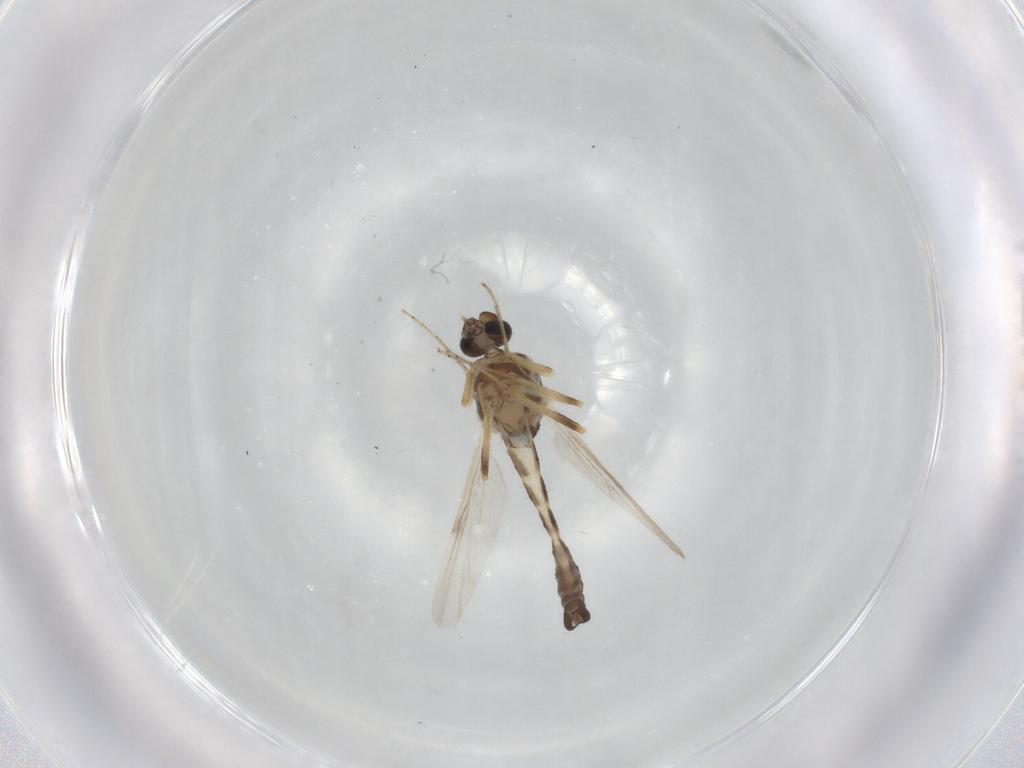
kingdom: Animalia
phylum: Arthropoda
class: Insecta
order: Diptera
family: Ceratopogonidae
